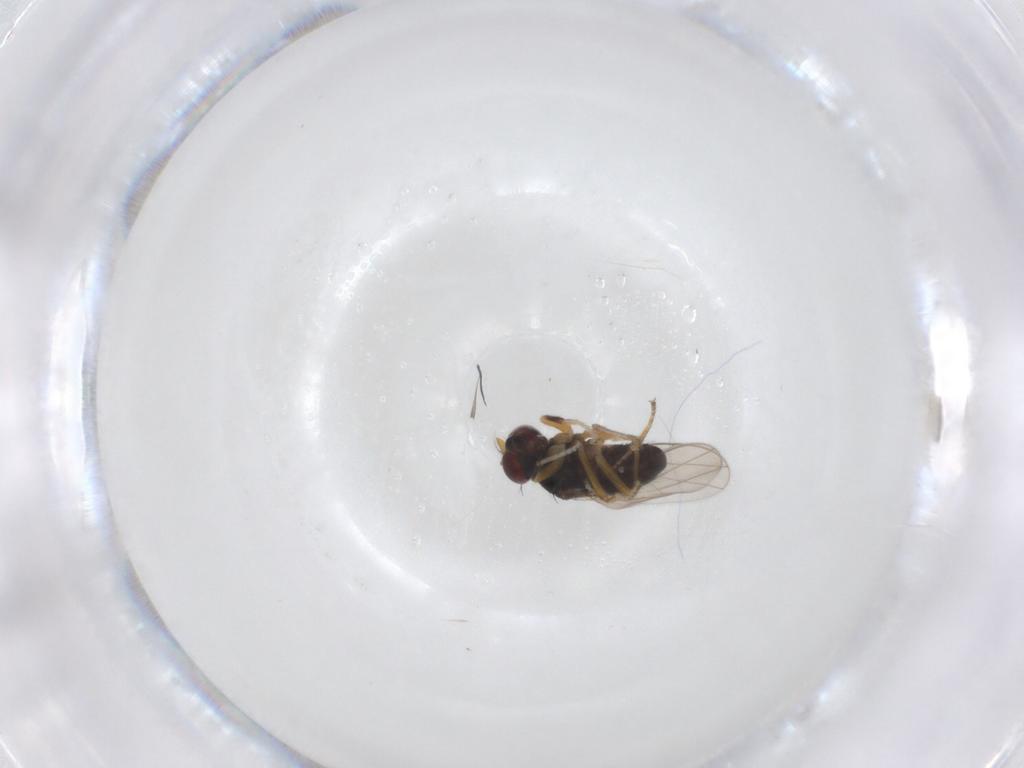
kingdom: Animalia
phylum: Arthropoda
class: Insecta
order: Diptera
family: Ephydridae
